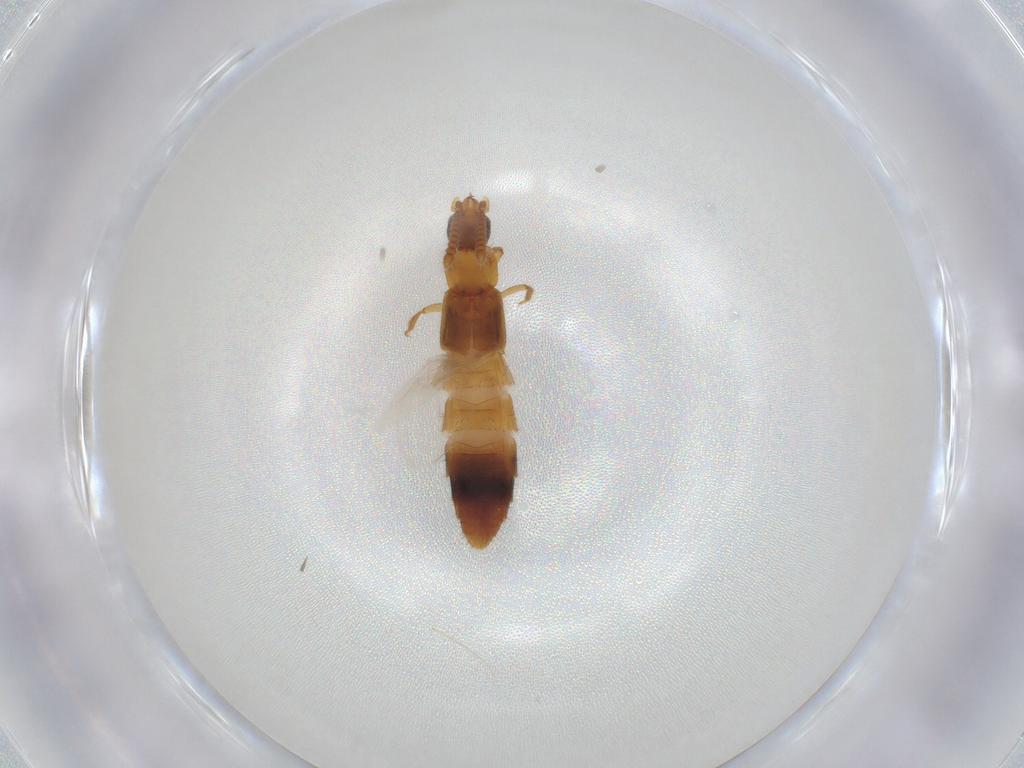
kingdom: Animalia
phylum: Arthropoda
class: Insecta
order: Coleoptera
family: Staphylinidae
